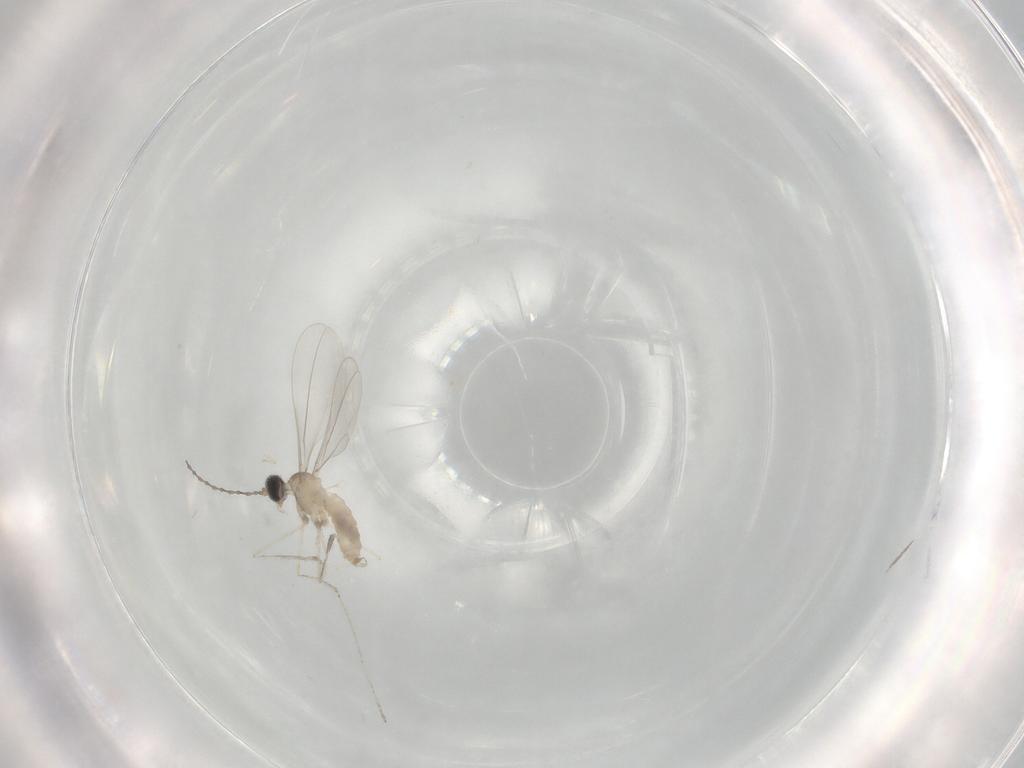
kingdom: Animalia
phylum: Arthropoda
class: Insecta
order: Diptera
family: Cecidomyiidae
